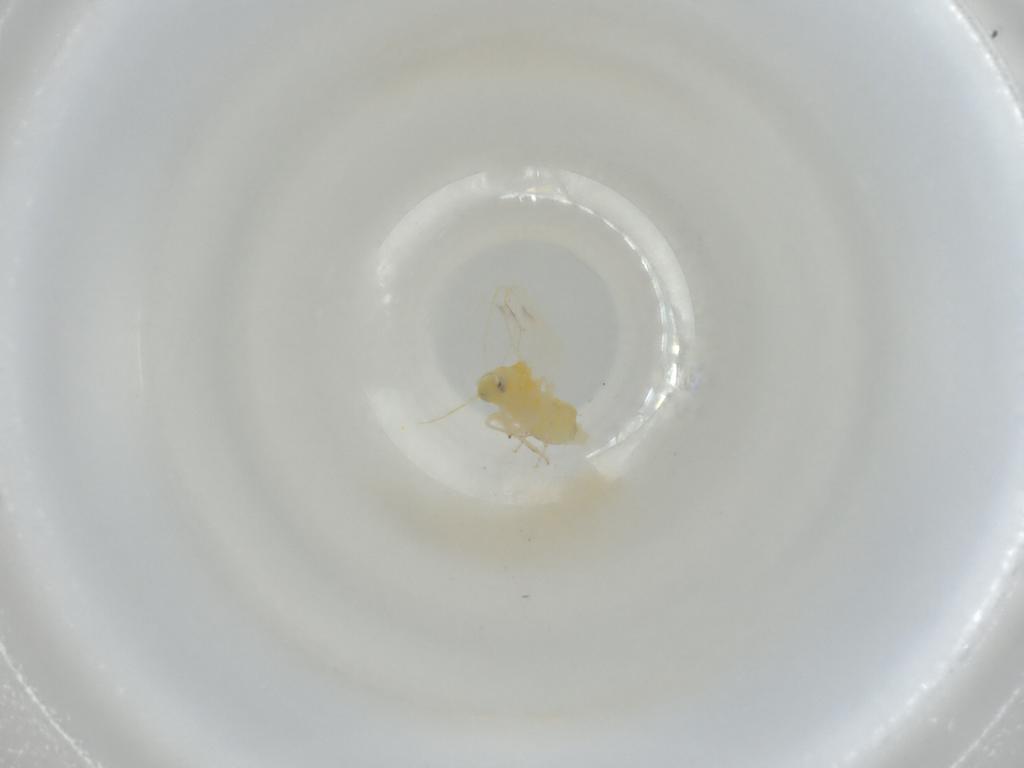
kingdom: Animalia
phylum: Arthropoda
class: Insecta
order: Hemiptera
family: Aleyrodidae
